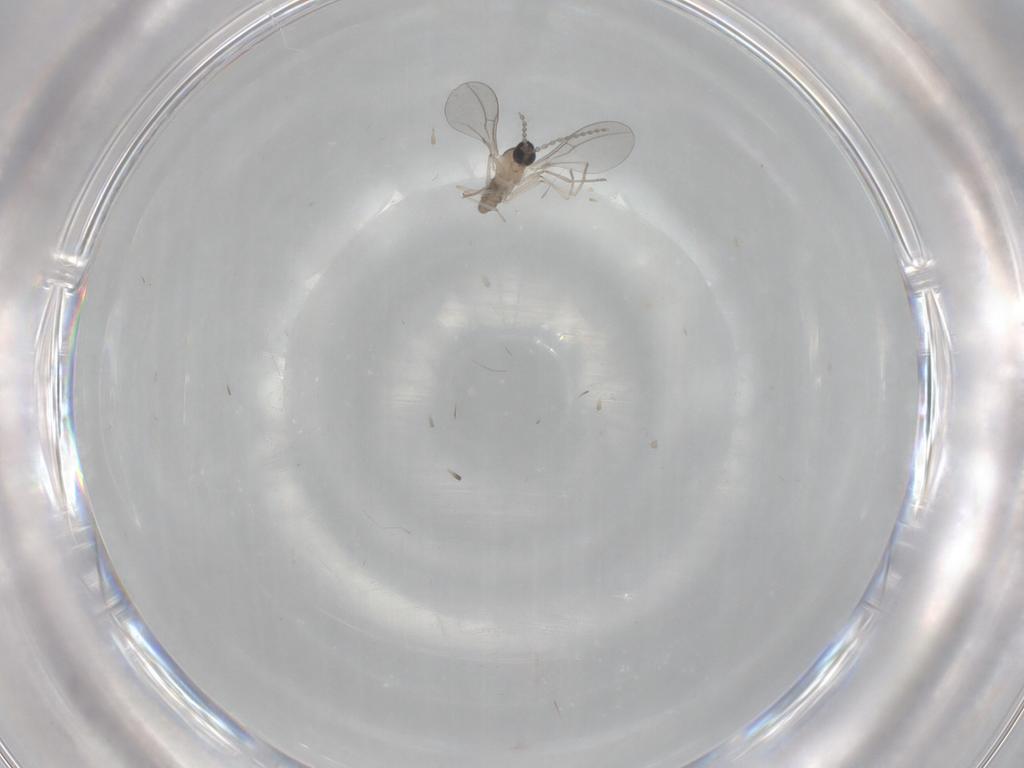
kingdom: Animalia
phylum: Arthropoda
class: Insecta
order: Diptera
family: Cecidomyiidae
